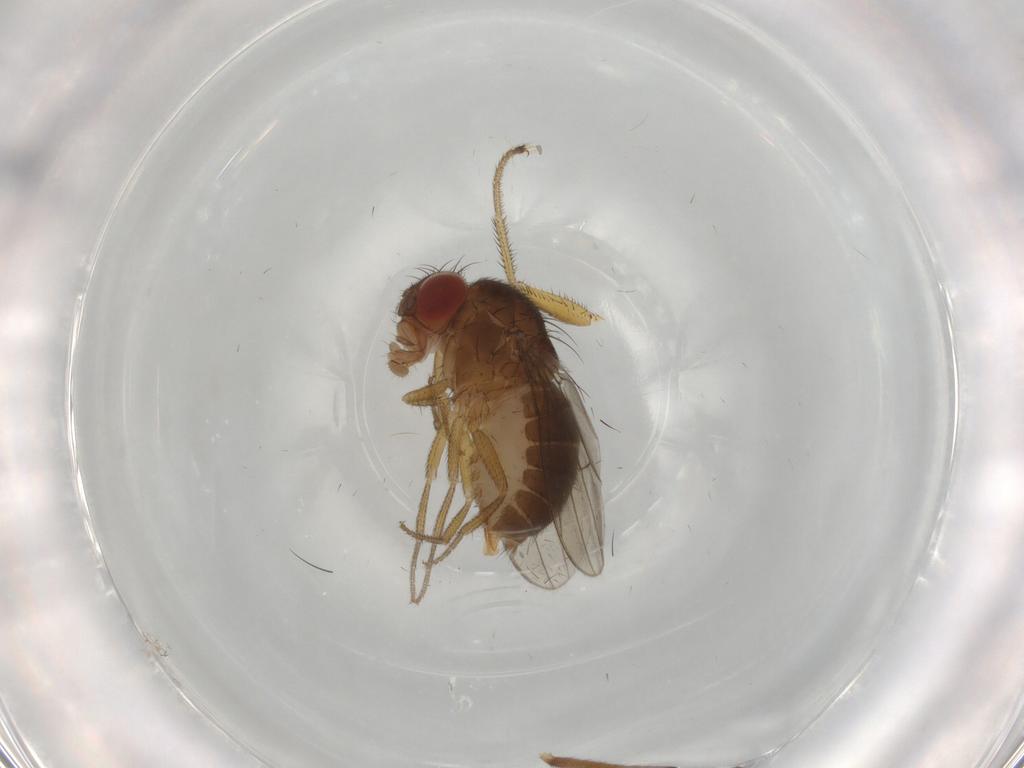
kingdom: Animalia
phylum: Arthropoda
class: Insecta
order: Diptera
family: Drosophilidae
